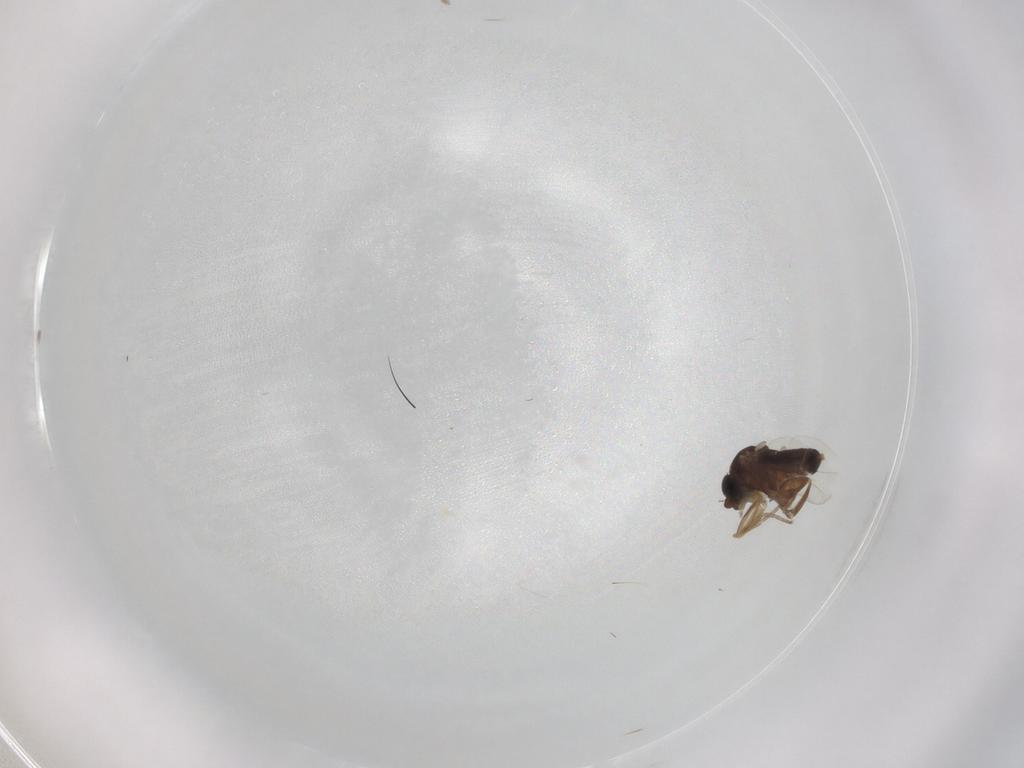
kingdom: Animalia
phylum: Arthropoda
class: Insecta
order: Diptera
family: Phoridae
